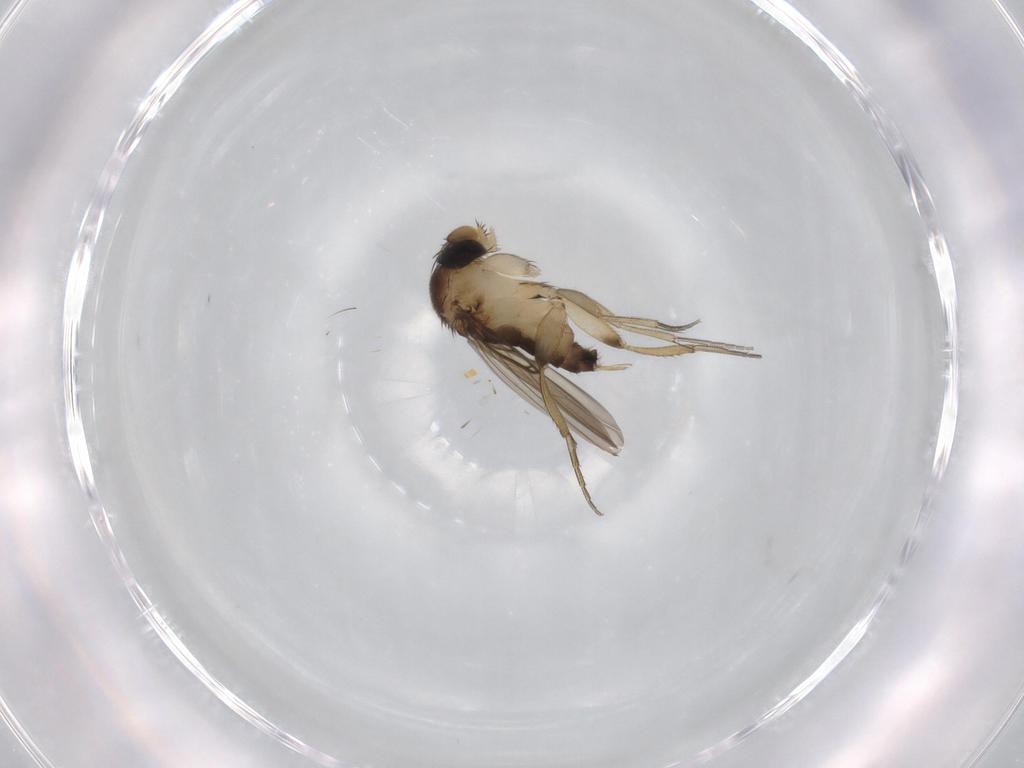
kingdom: Animalia
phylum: Arthropoda
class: Insecta
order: Diptera
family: Phoridae
